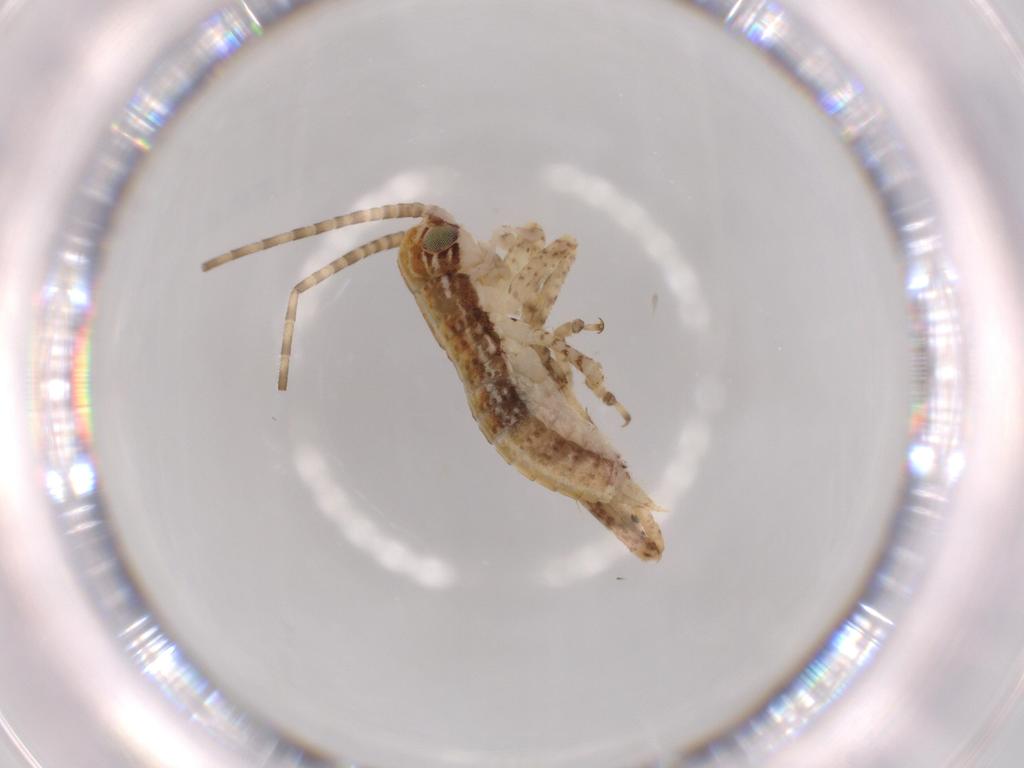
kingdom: Animalia
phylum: Arthropoda
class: Insecta
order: Orthoptera
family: Gryllidae
